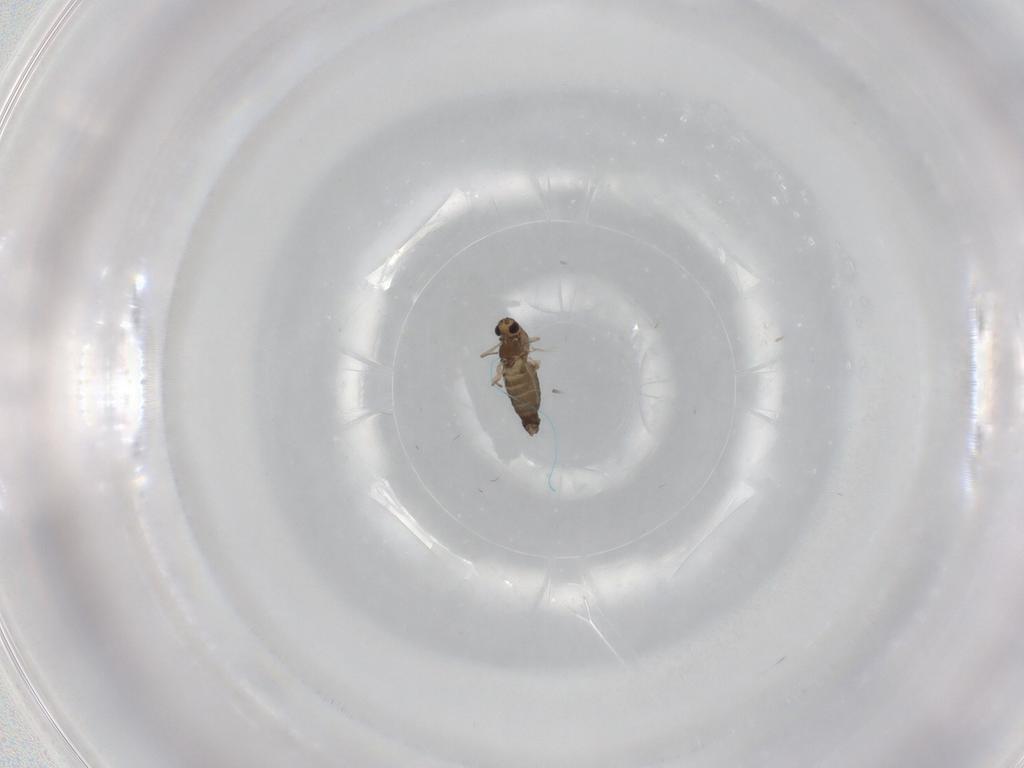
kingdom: Animalia
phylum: Arthropoda
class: Insecta
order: Diptera
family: Chironomidae
